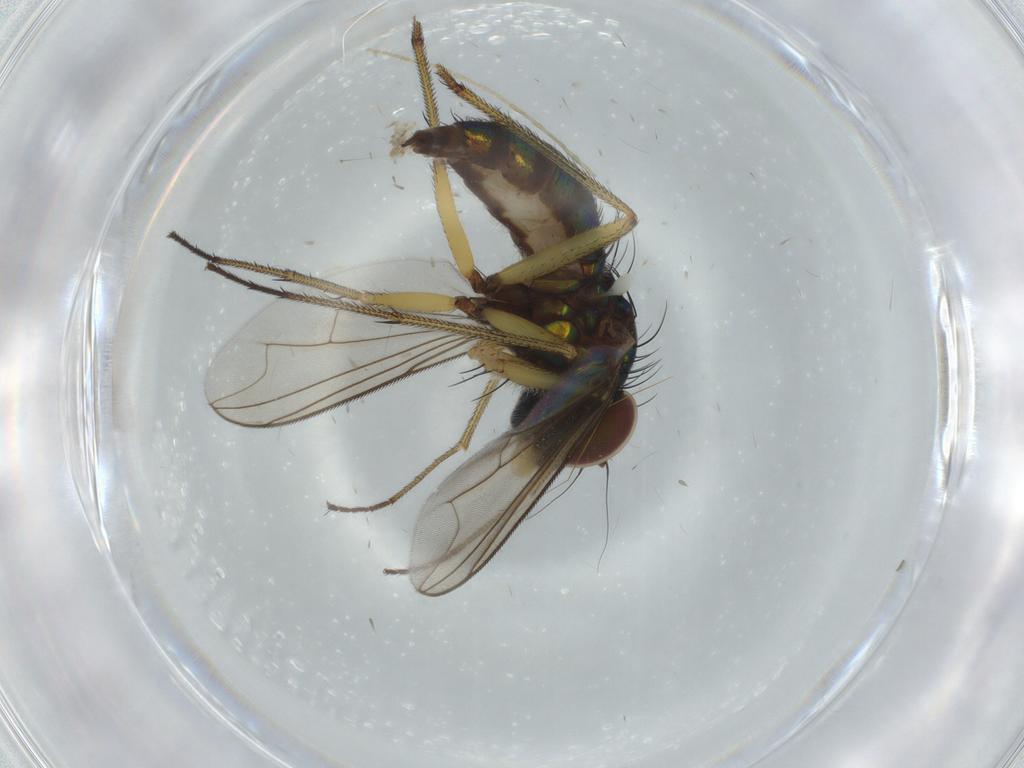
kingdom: Animalia
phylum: Arthropoda
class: Insecta
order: Diptera
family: Dolichopodidae
